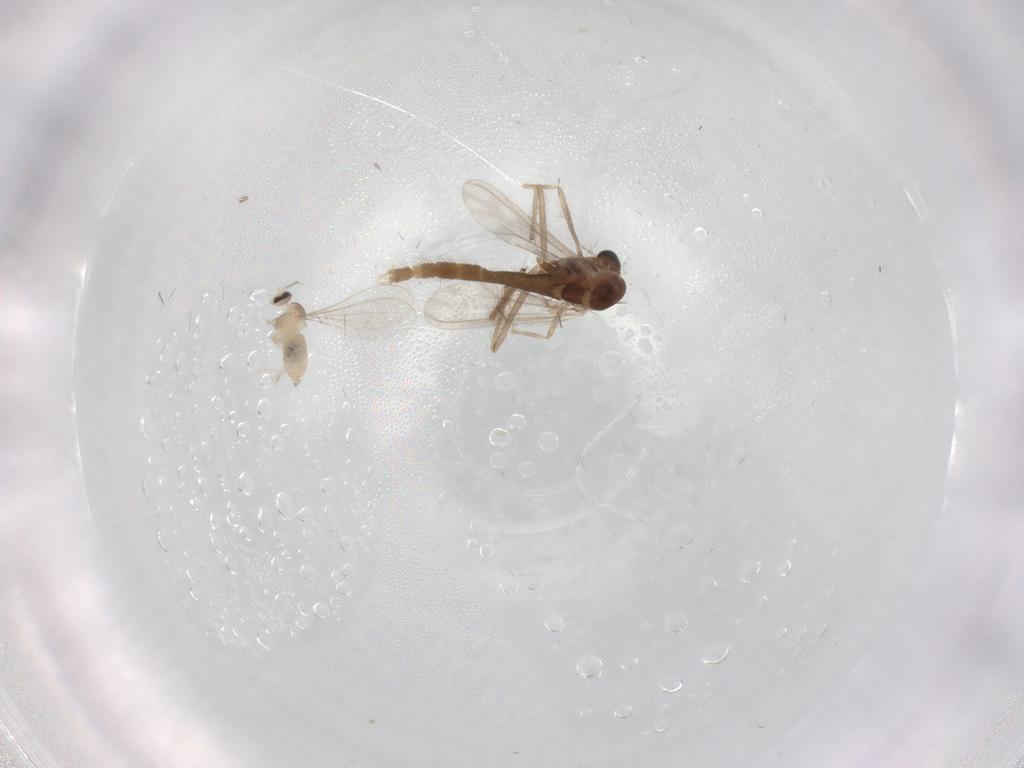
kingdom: Animalia
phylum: Arthropoda
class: Insecta
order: Diptera
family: Chironomidae
